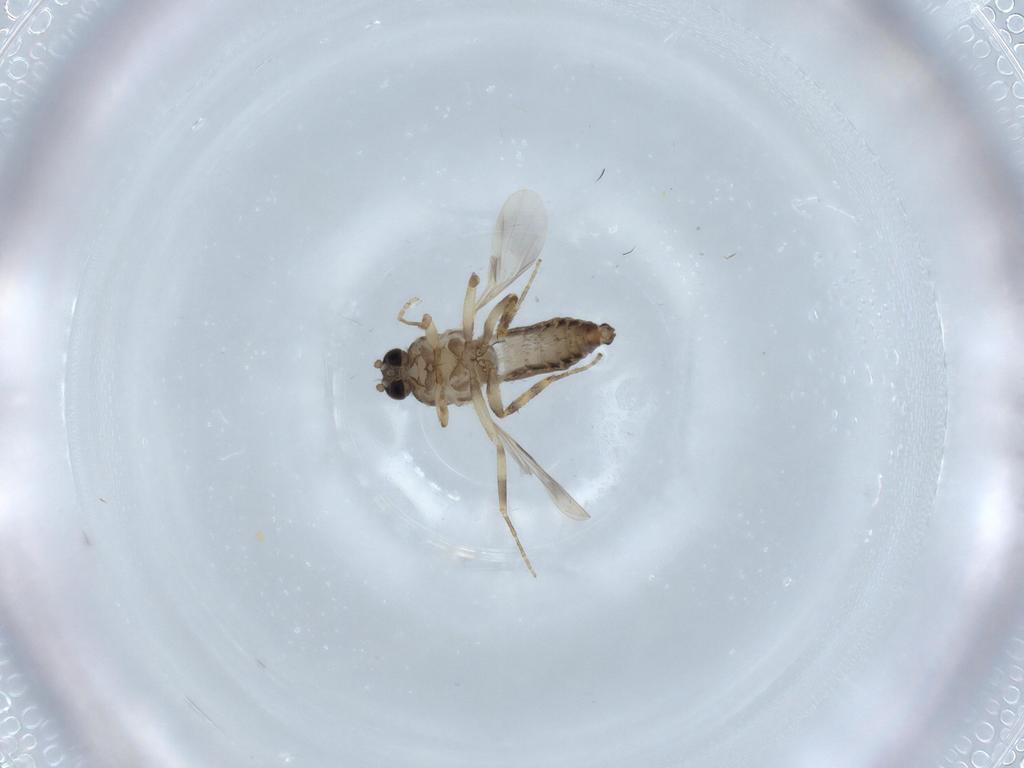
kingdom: Animalia
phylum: Arthropoda
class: Insecta
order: Diptera
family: Ceratopogonidae
